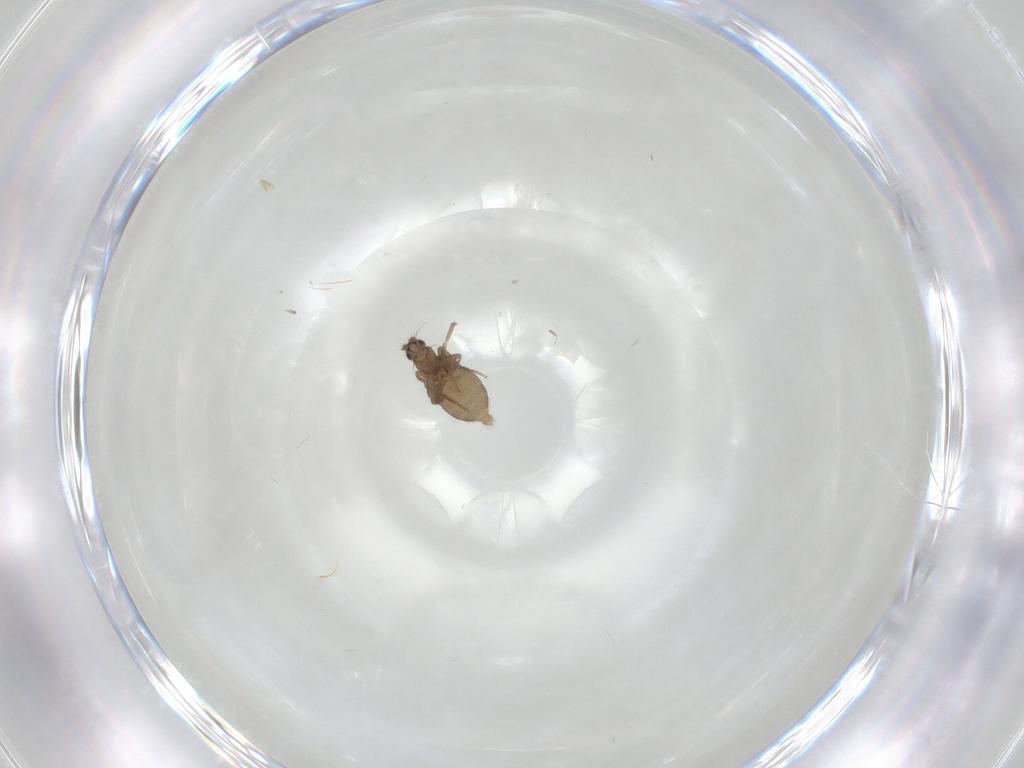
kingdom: Animalia
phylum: Arthropoda
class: Insecta
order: Diptera
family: Phoridae
